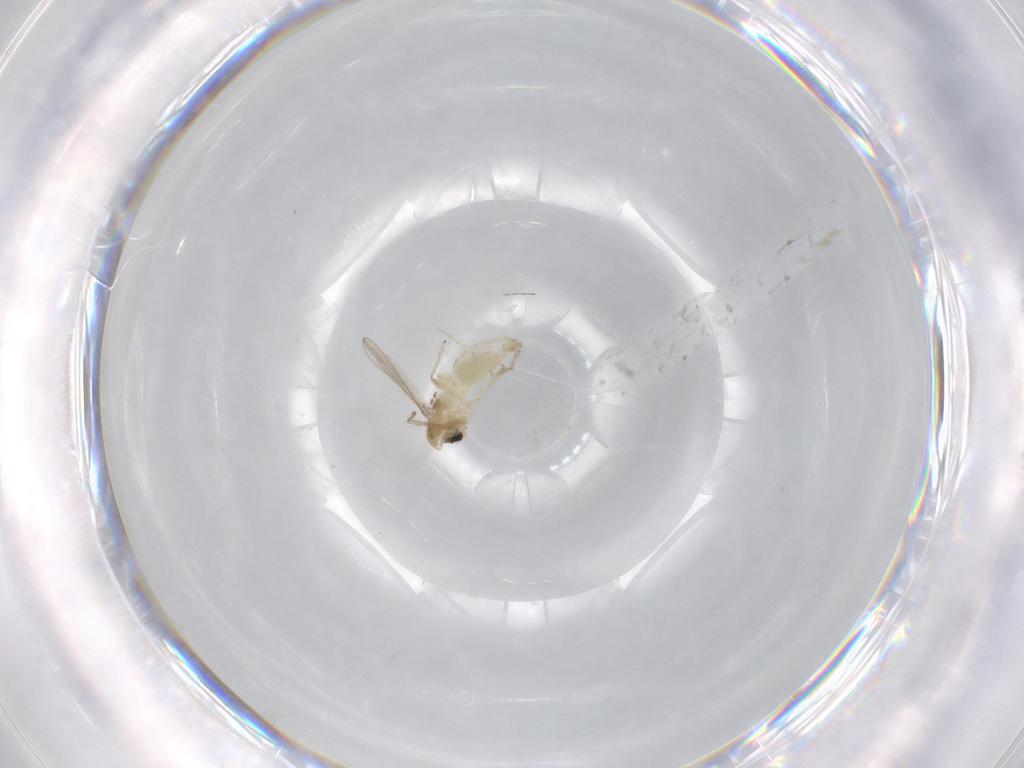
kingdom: Animalia
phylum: Arthropoda
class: Insecta
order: Diptera
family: Chironomidae
